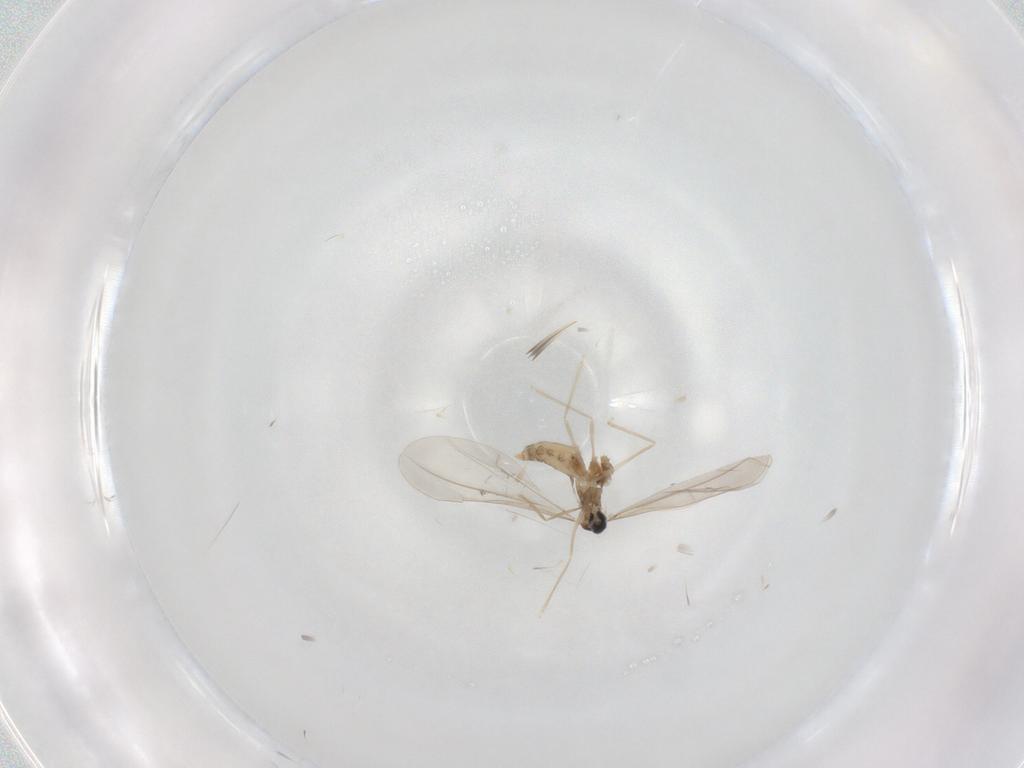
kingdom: Animalia
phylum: Arthropoda
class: Insecta
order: Diptera
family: Cecidomyiidae
